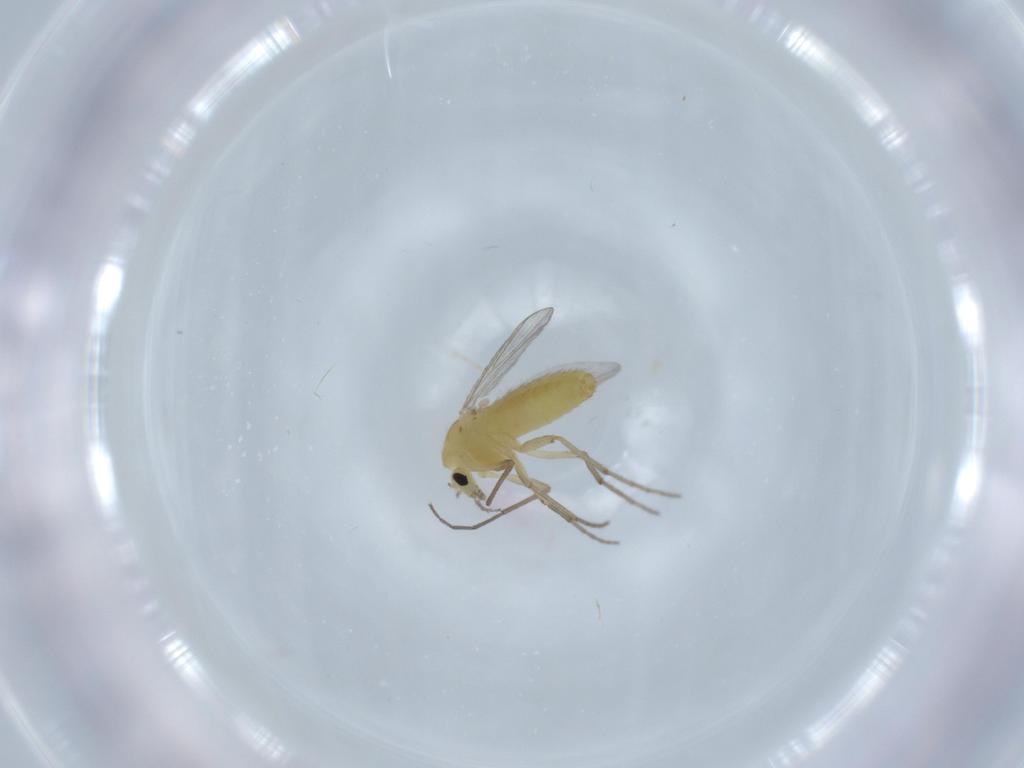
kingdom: Animalia
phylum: Arthropoda
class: Insecta
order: Diptera
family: Chironomidae
